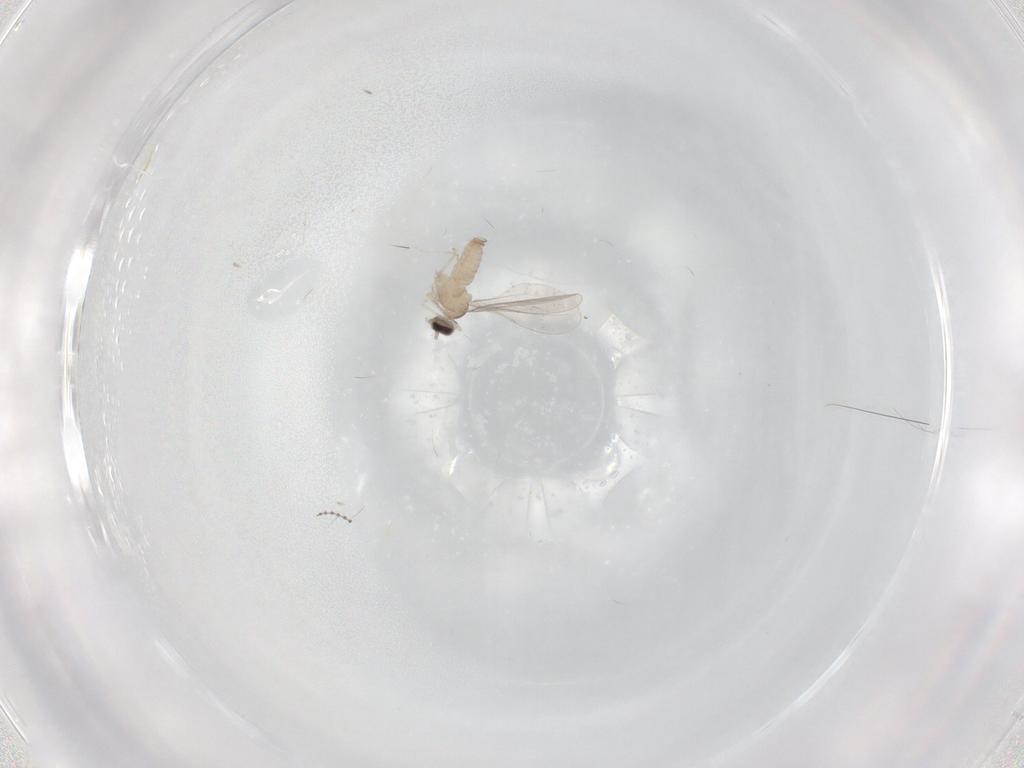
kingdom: Animalia
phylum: Arthropoda
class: Insecta
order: Diptera
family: Cecidomyiidae
